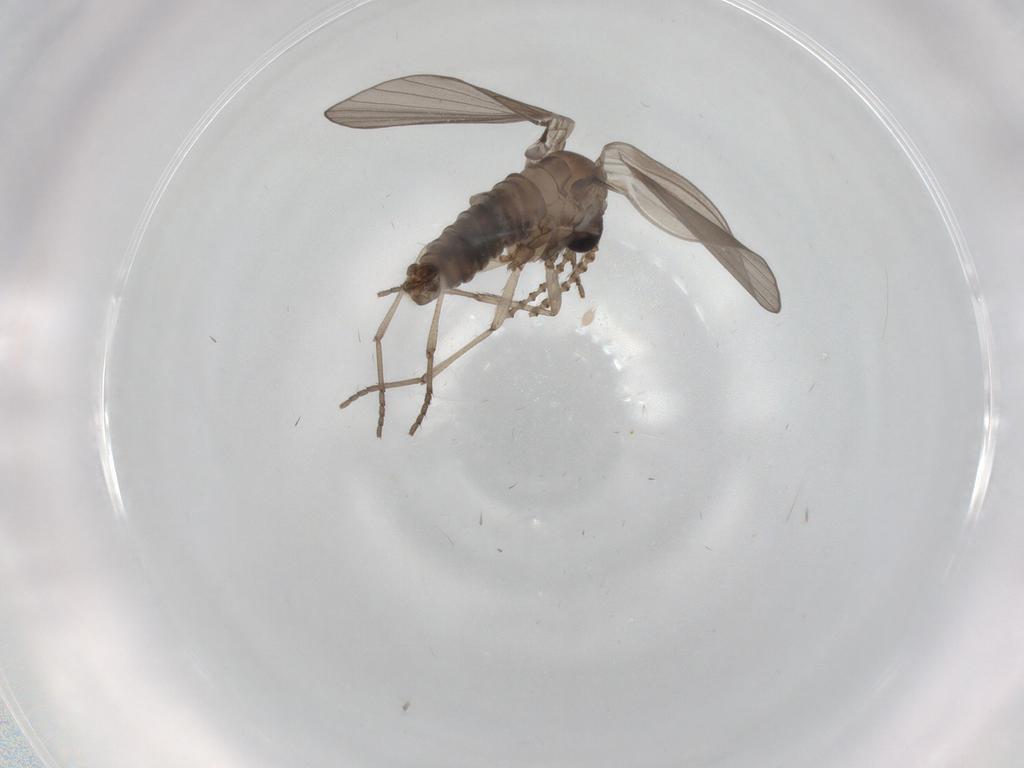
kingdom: Animalia
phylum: Arthropoda
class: Insecta
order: Diptera
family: Psychodidae
